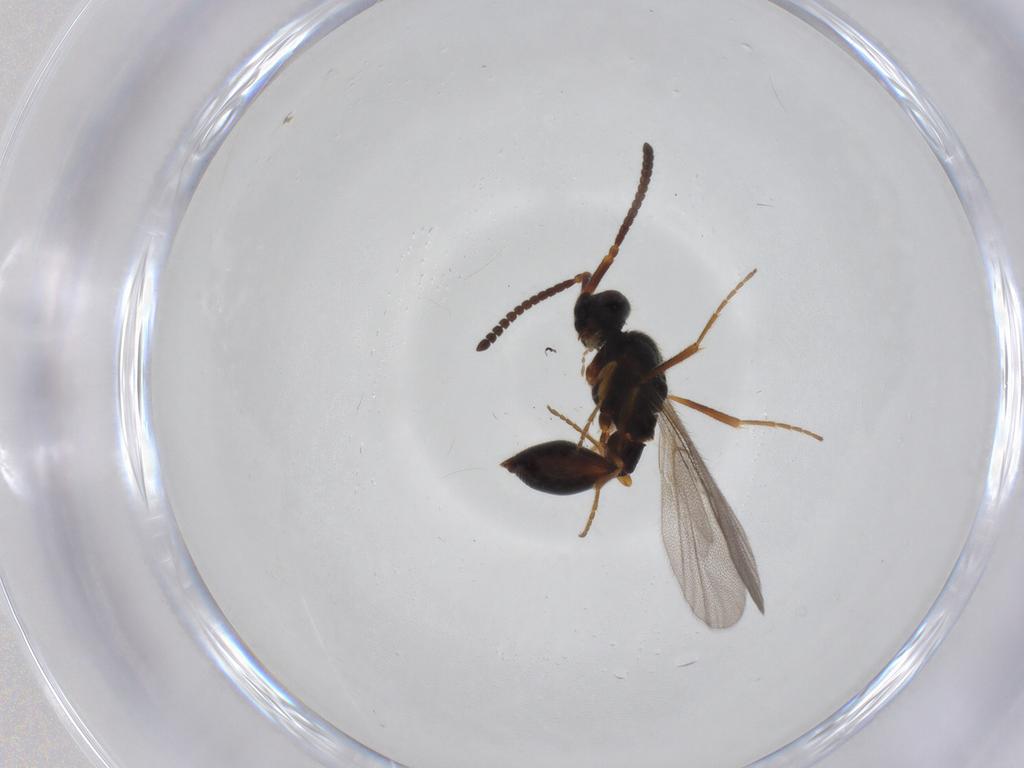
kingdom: Animalia
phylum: Arthropoda
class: Insecta
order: Hymenoptera
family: Diapriidae
